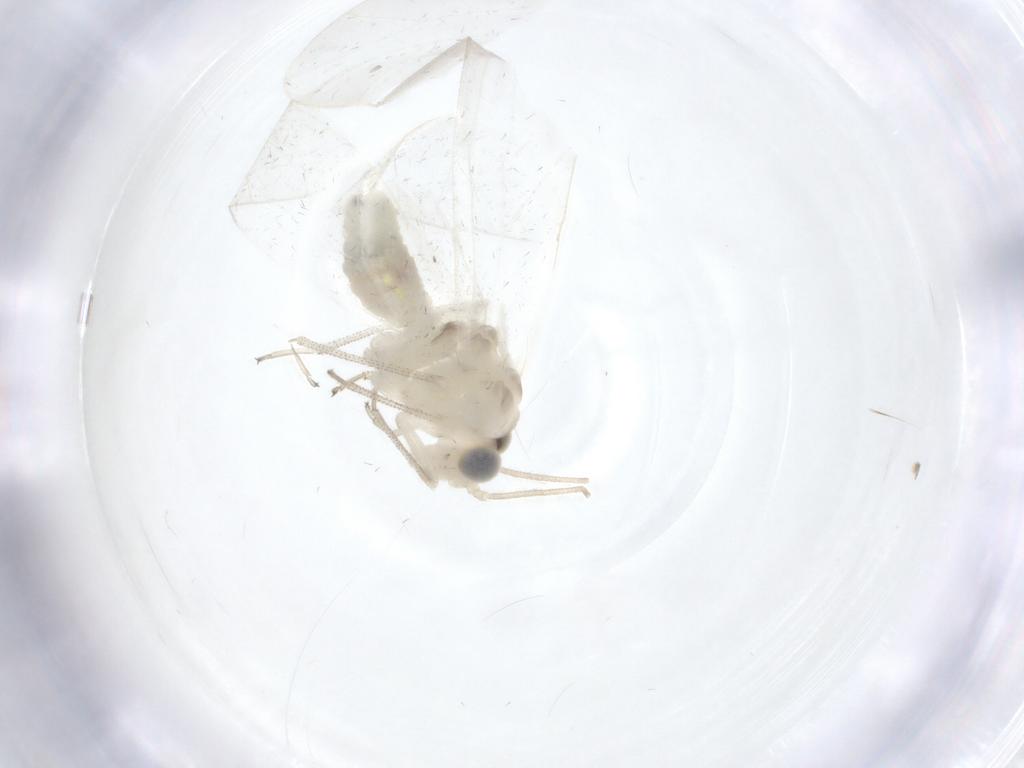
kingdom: Animalia
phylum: Arthropoda
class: Insecta
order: Psocodea
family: Caeciliusidae
